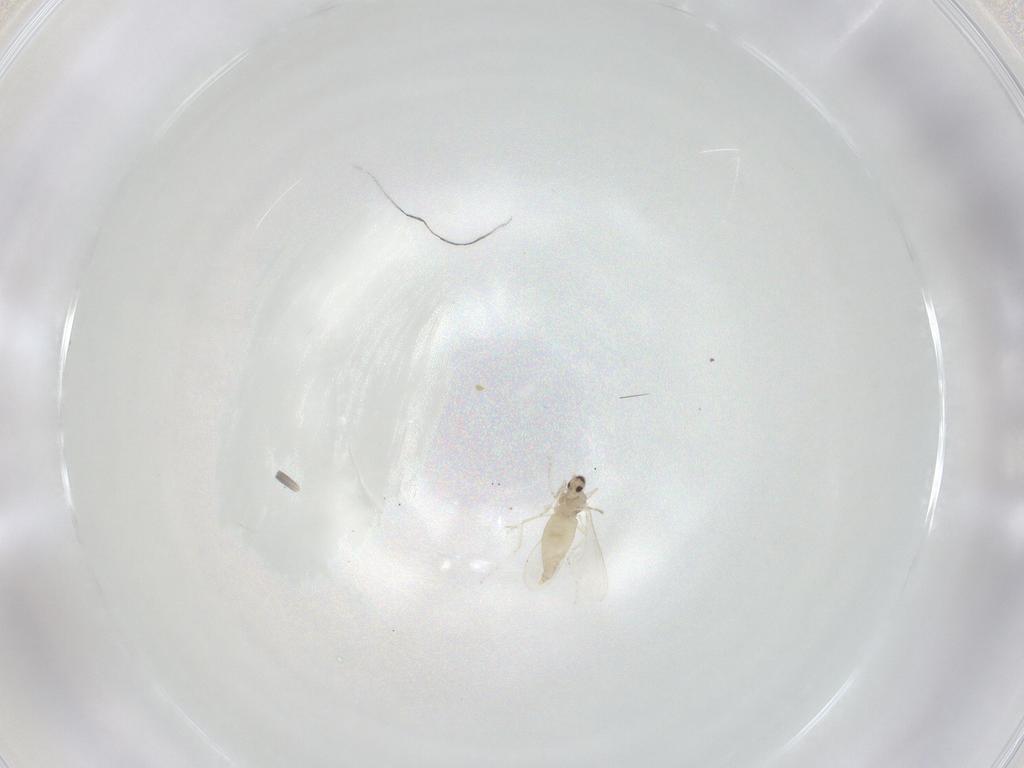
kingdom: Animalia
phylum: Arthropoda
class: Insecta
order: Diptera
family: Cecidomyiidae
